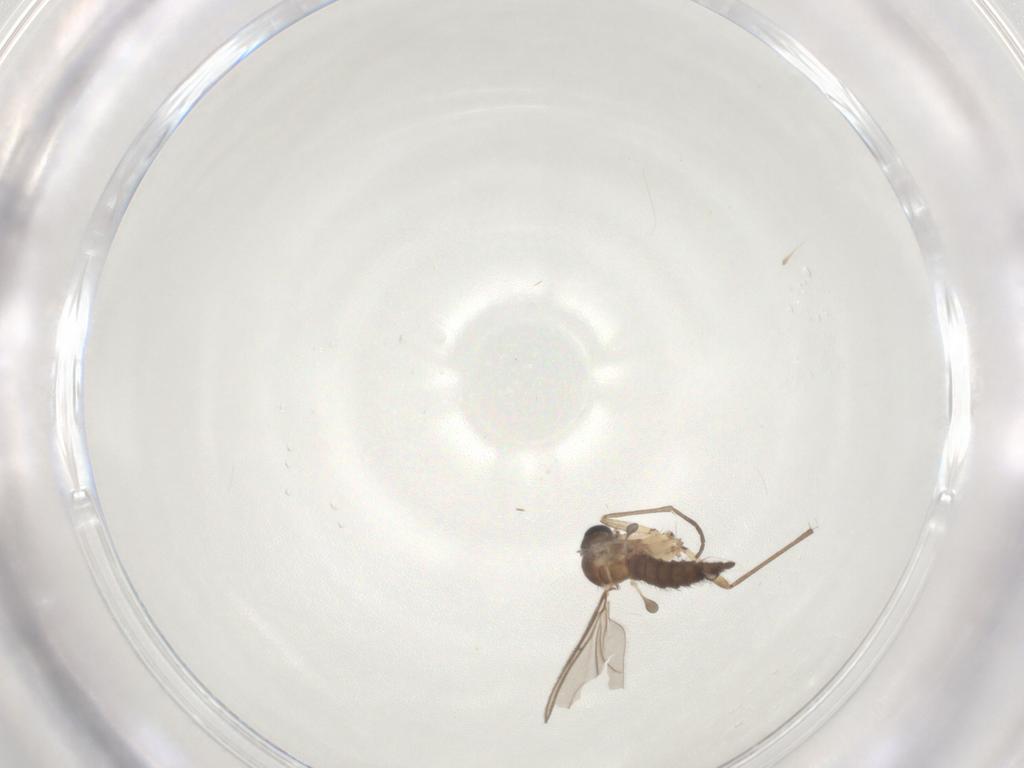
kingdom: Animalia
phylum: Arthropoda
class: Insecta
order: Diptera
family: Sciaridae
